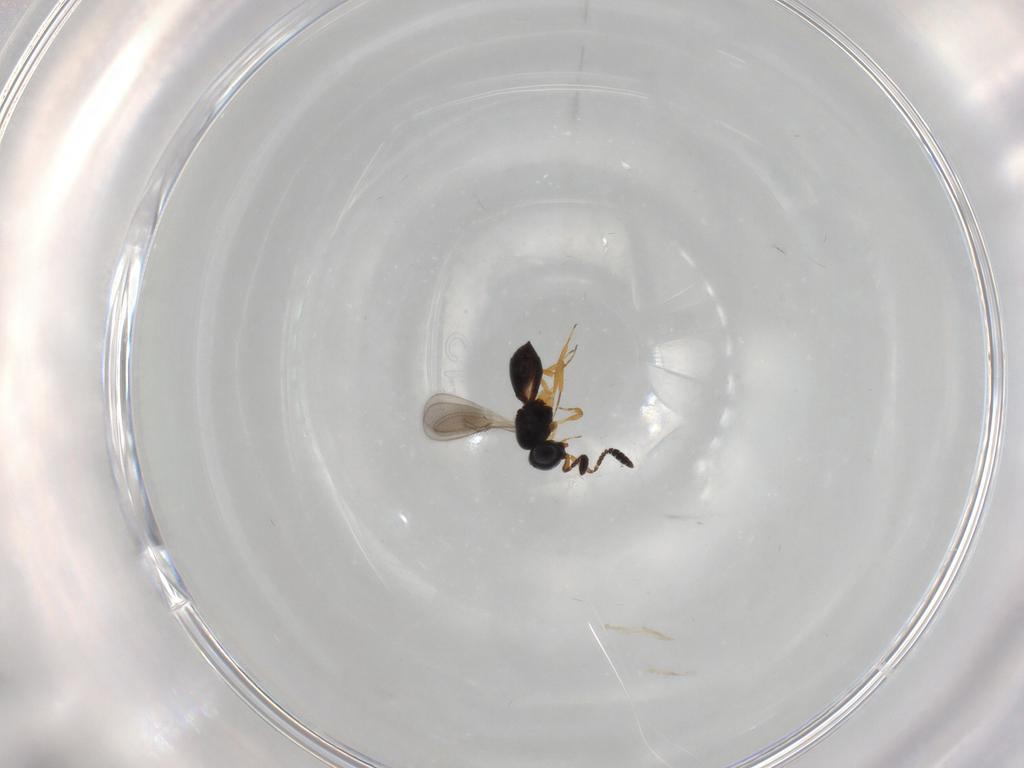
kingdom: Animalia
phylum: Arthropoda
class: Insecta
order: Hymenoptera
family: Scelionidae
